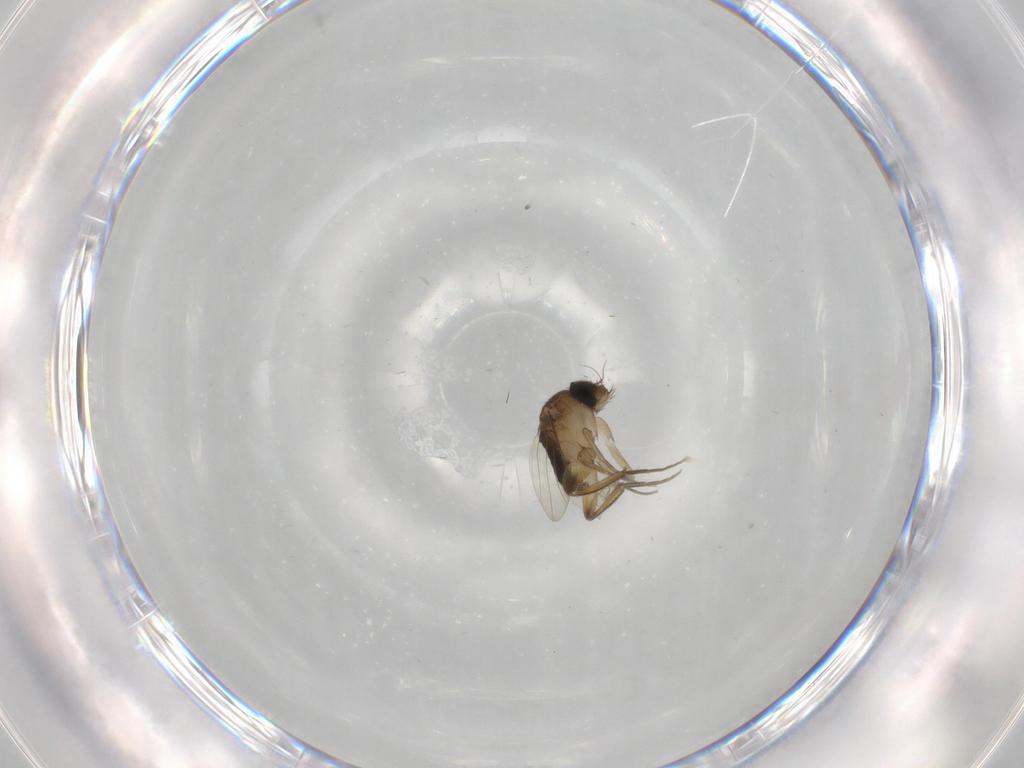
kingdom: Animalia
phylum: Arthropoda
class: Insecta
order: Diptera
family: Phoridae
